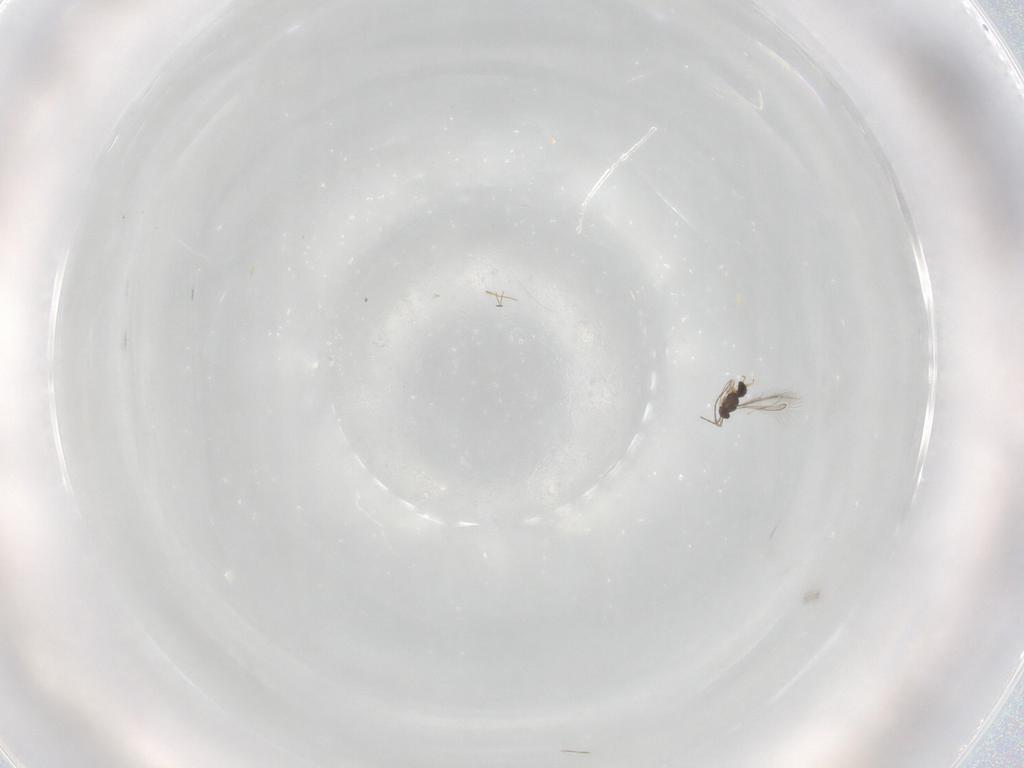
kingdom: Animalia
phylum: Arthropoda
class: Insecta
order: Hymenoptera
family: Mymaridae
